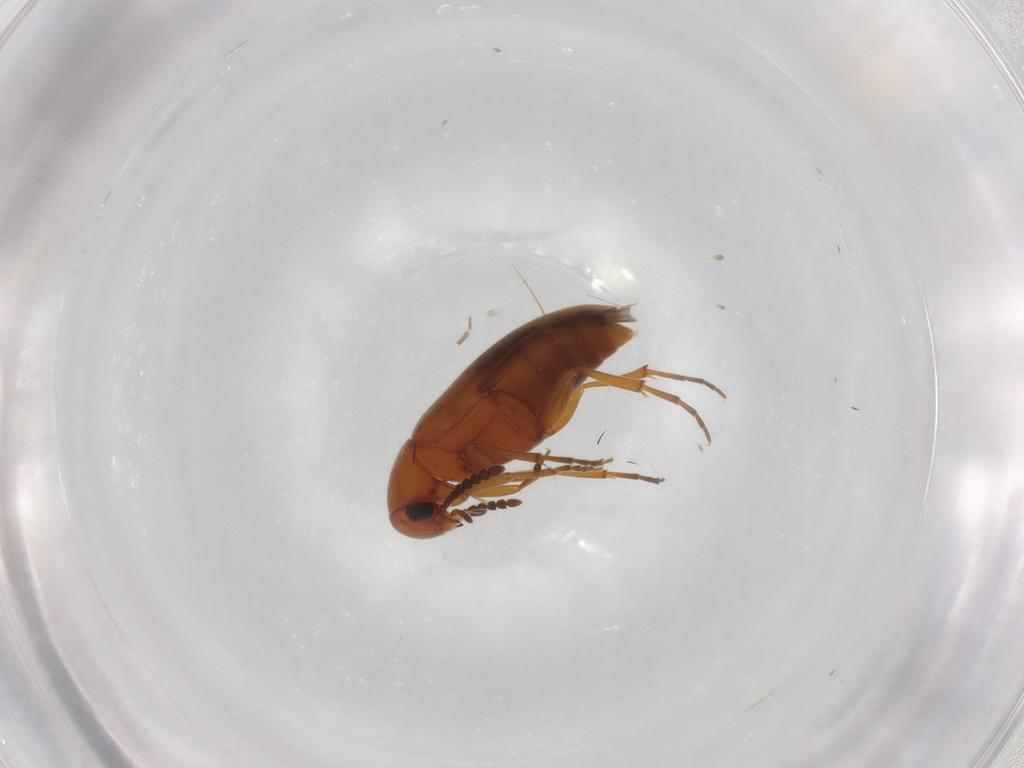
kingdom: Animalia
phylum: Arthropoda
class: Insecta
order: Coleoptera
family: Scraptiidae
